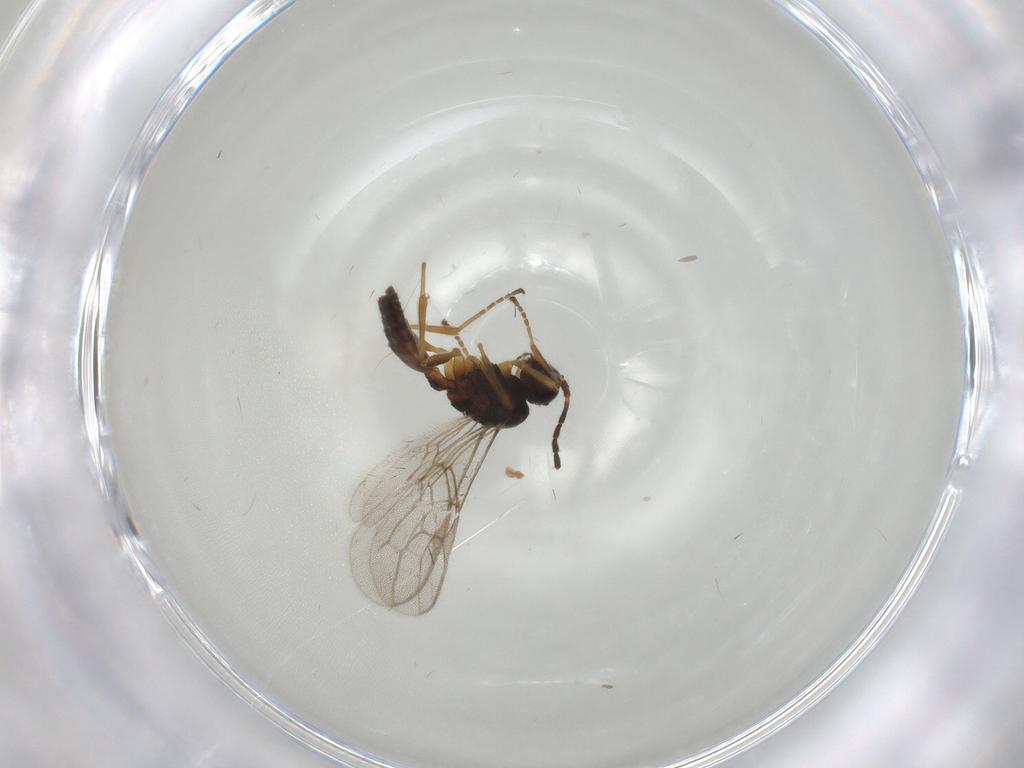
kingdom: Animalia
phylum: Arthropoda
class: Insecta
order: Hymenoptera
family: Braconidae
